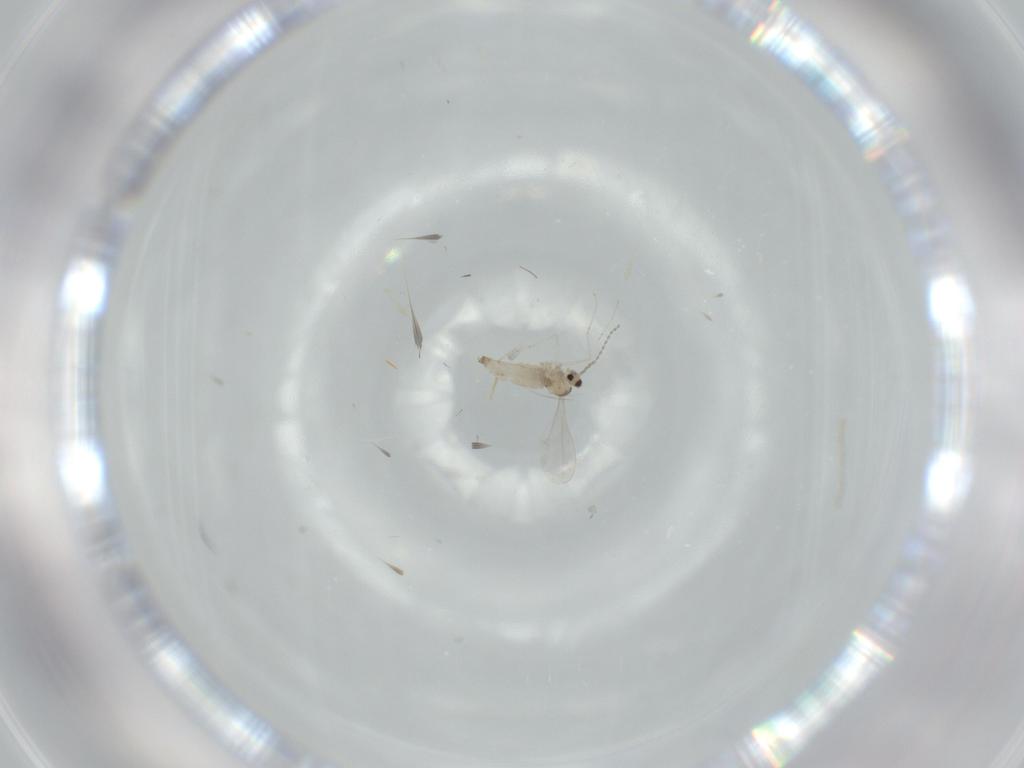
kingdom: Animalia
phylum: Arthropoda
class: Insecta
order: Diptera
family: Cecidomyiidae
